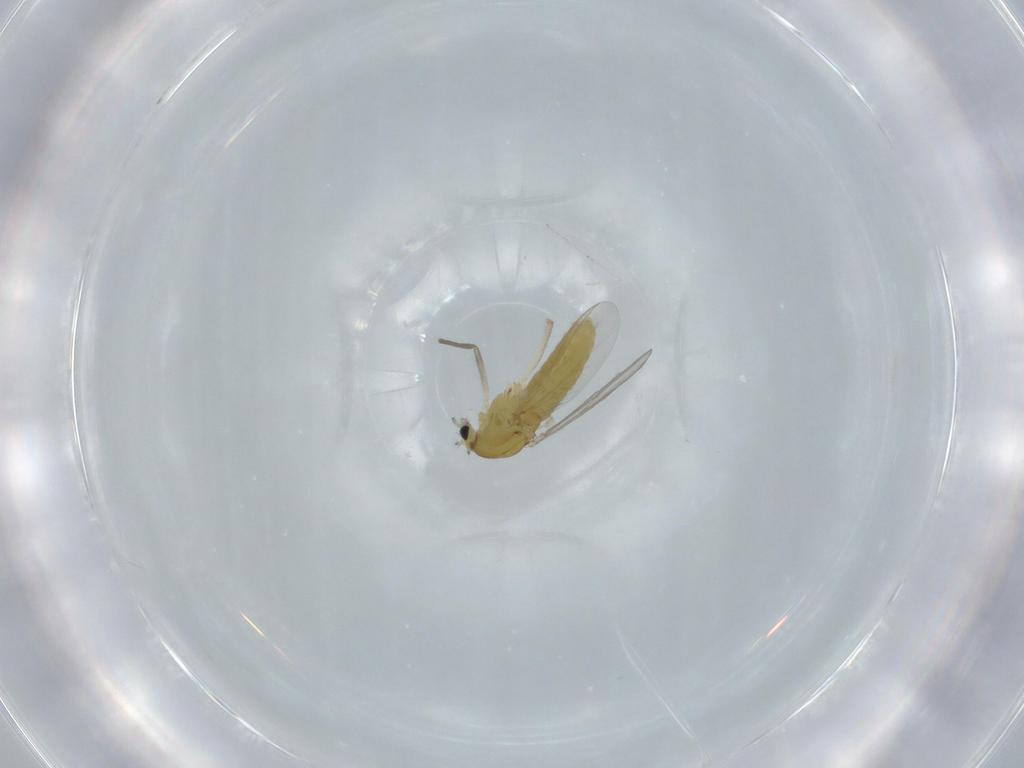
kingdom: Animalia
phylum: Arthropoda
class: Insecta
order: Diptera
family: Chironomidae
